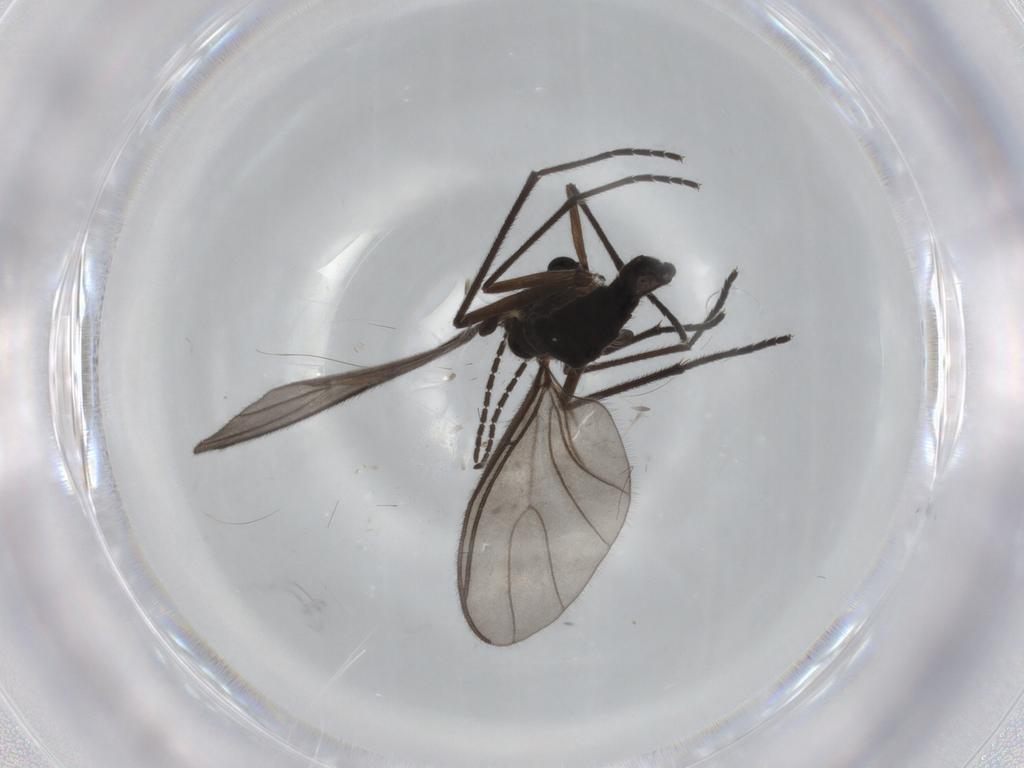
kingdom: Animalia
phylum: Arthropoda
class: Insecta
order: Diptera
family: Sciaridae
